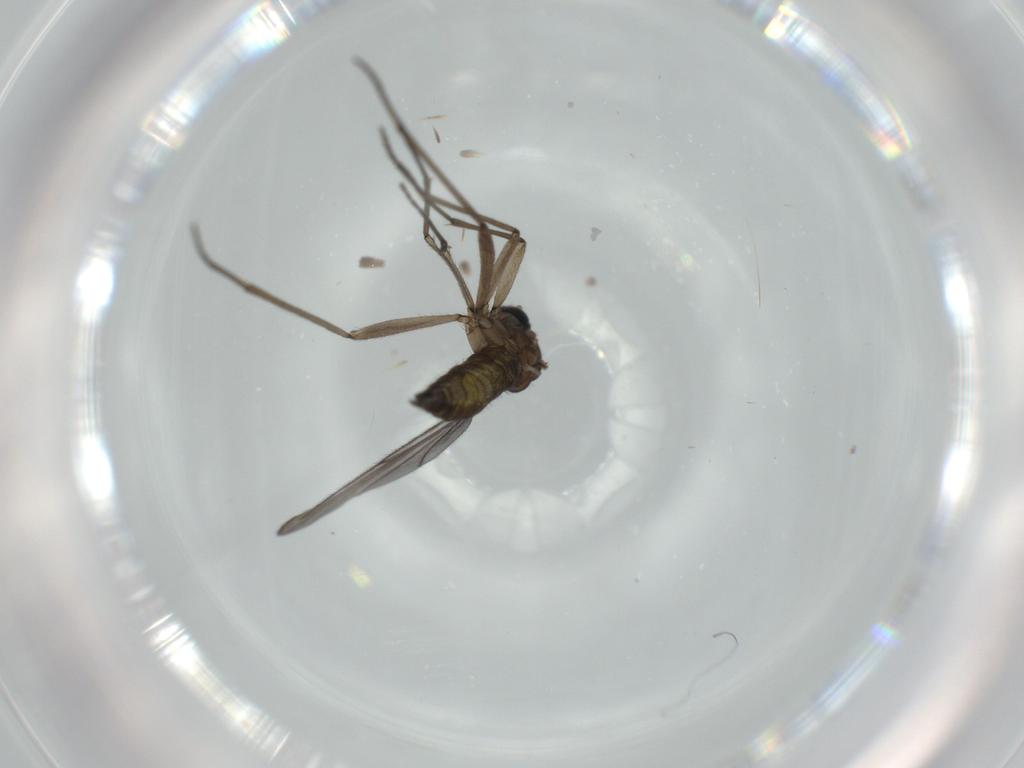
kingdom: Animalia
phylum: Arthropoda
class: Insecta
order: Diptera
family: Sciaridae
